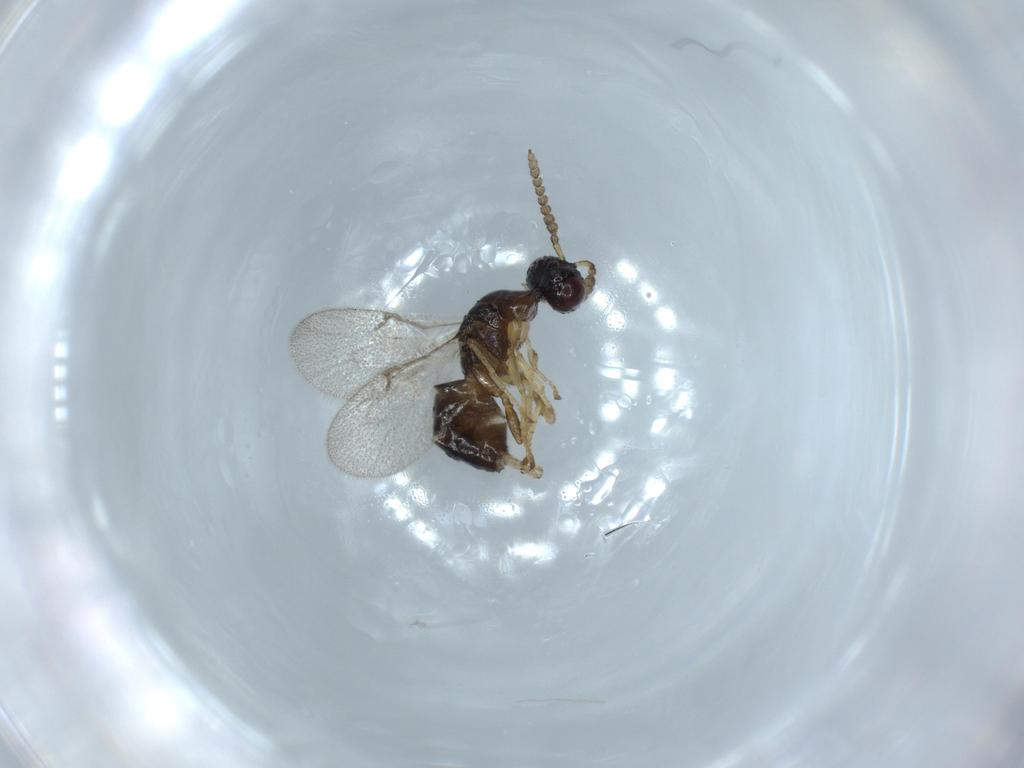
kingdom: Animalia
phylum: Arthropoda
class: Insecta
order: Hymenoptera
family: Agaonidae
